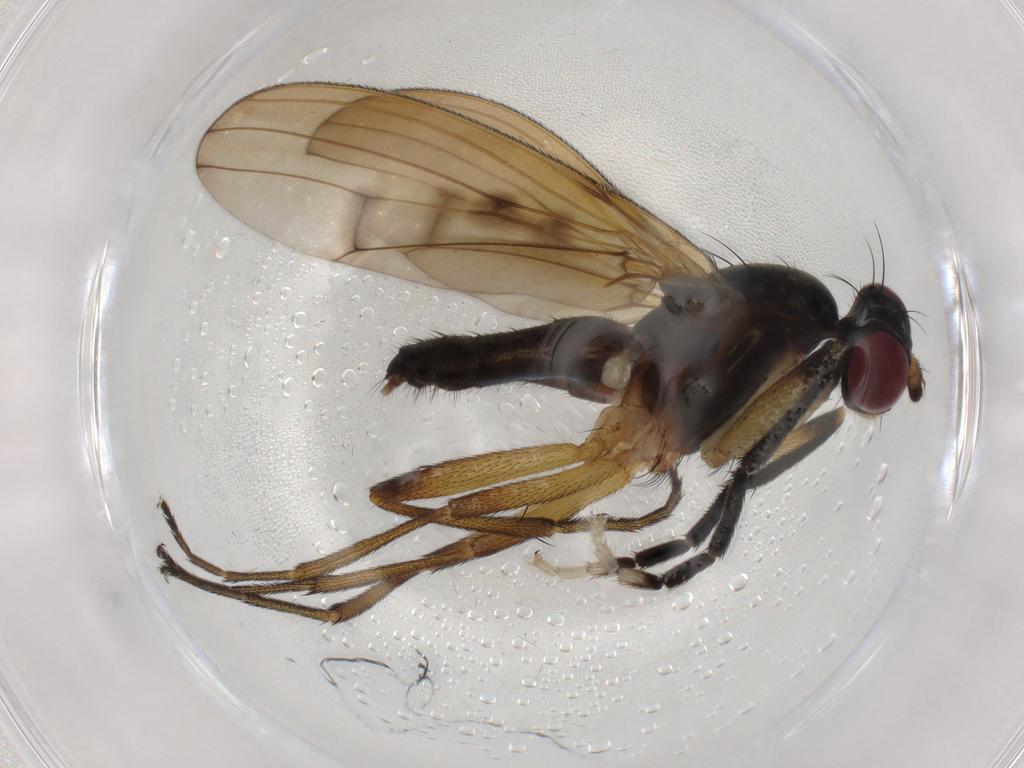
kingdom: Animalia
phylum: Arthropoda
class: Insecta
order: Diptera
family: Sciomyzidae
